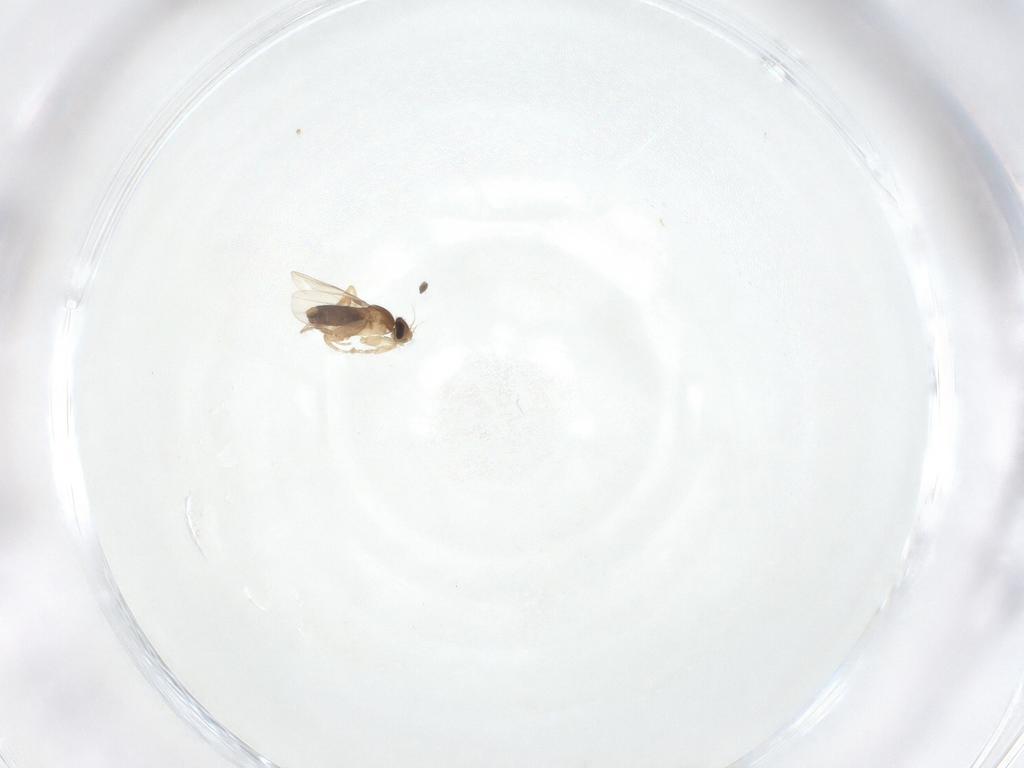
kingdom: Animalia
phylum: Arthropoda
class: Insecta
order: Diptera
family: Phoridae
